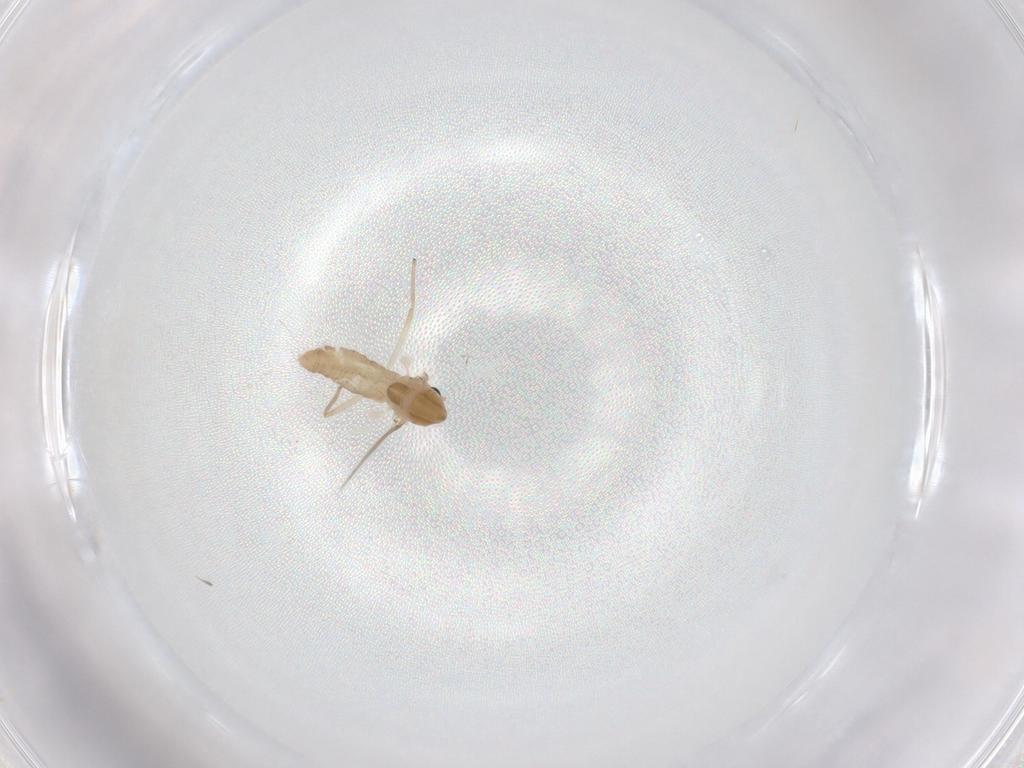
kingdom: Animalia
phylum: Arthropoda
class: Insecta
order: Diptera
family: Chironomidae
